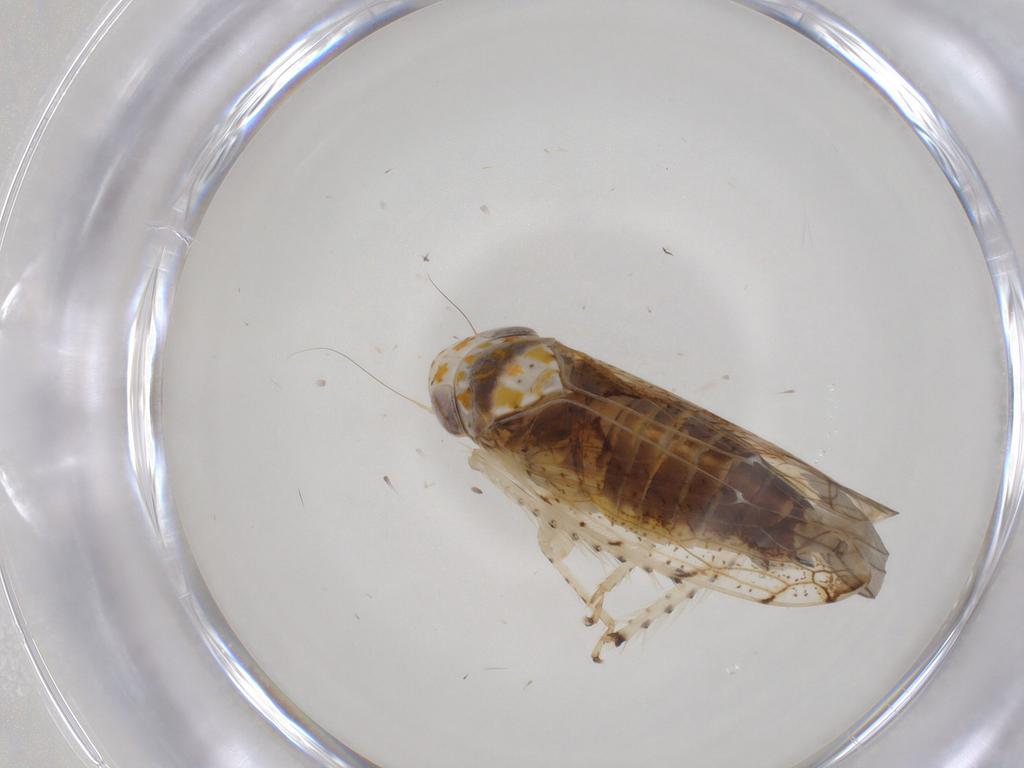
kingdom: Animalia
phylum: Arthropoda
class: Insecta
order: Hemiptera
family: Cicadellidae
